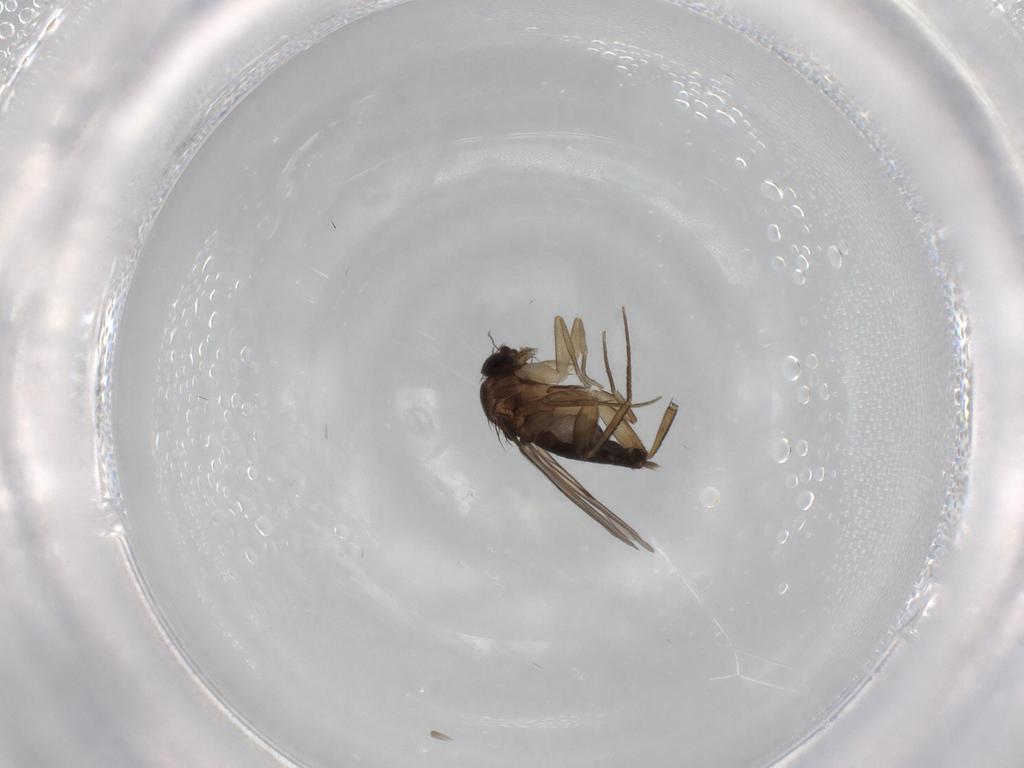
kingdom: Animalia
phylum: Arthropoda
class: Insecta
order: Diptera
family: Phoridae
